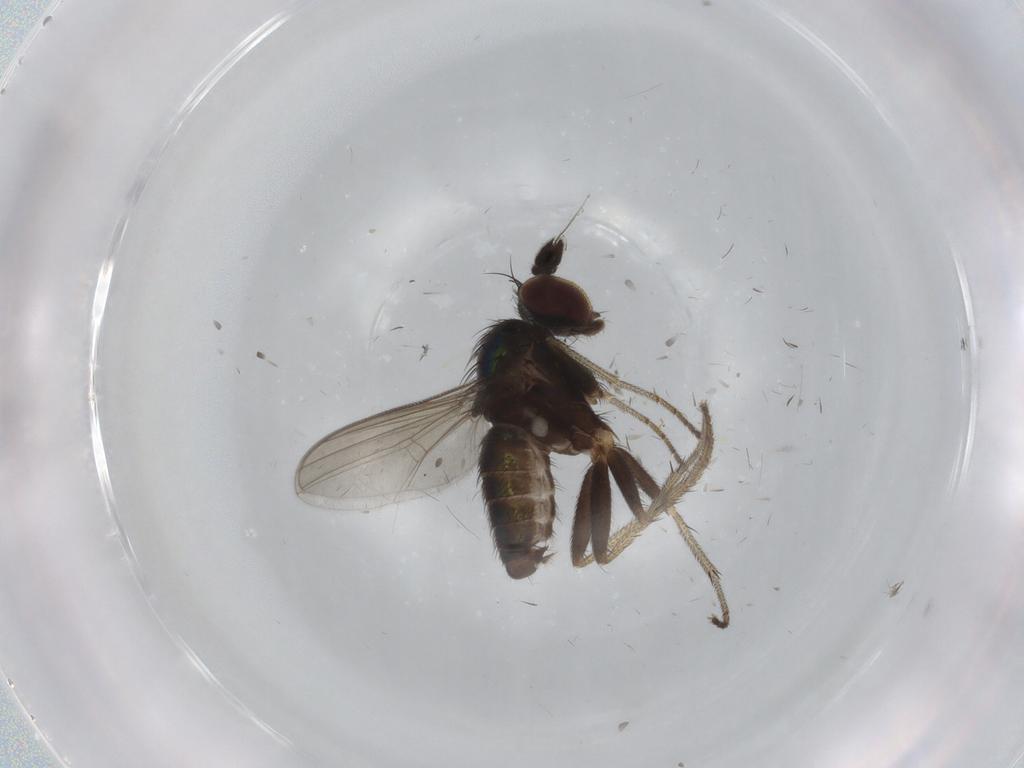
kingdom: Animalia
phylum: Arthropoda
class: Insecta
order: Diptera
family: Dolichopodidae
